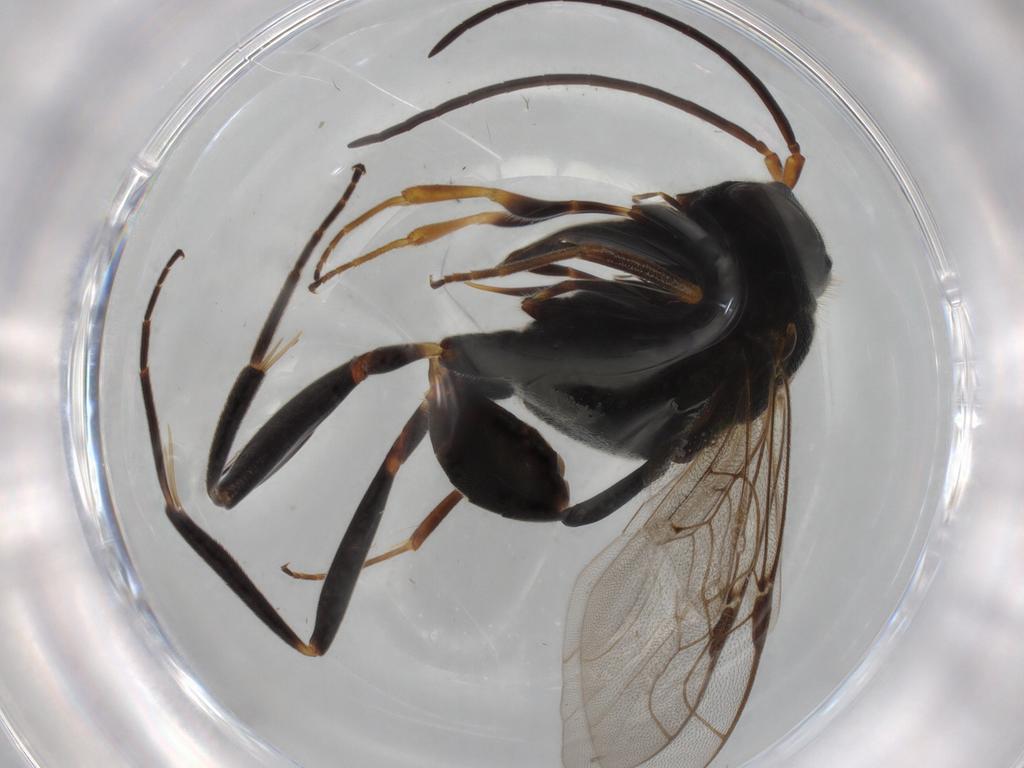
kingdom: Animalia
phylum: Arthropoda
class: Insecta
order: Hymenoptera
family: Evaniidae
